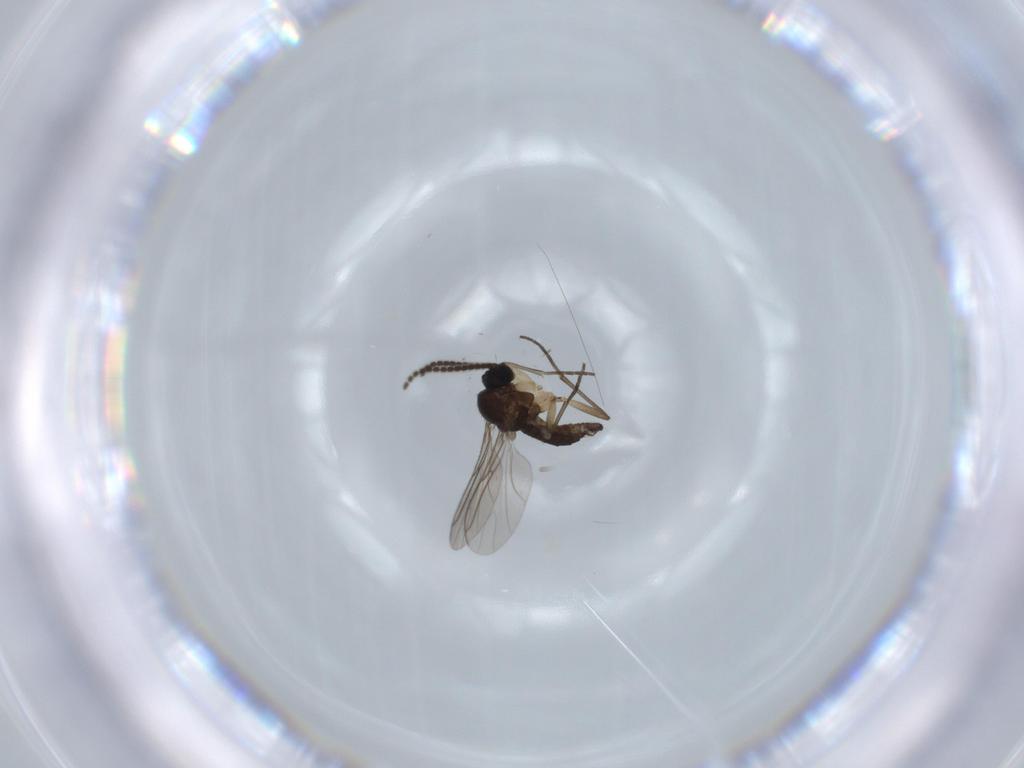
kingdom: Animalia
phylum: Arthropoda
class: Insecta
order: Diptera
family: Sciaridae
